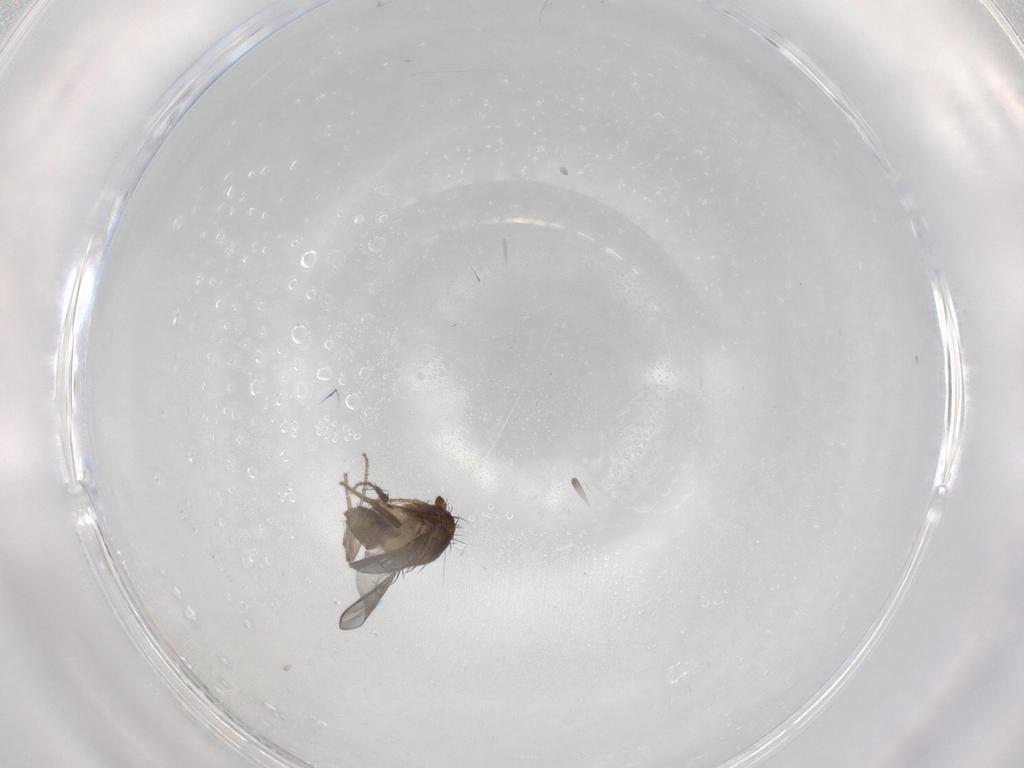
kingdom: Animalia
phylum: Arthropoda
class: Insecta
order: Diptera
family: Sphaeroceridae
